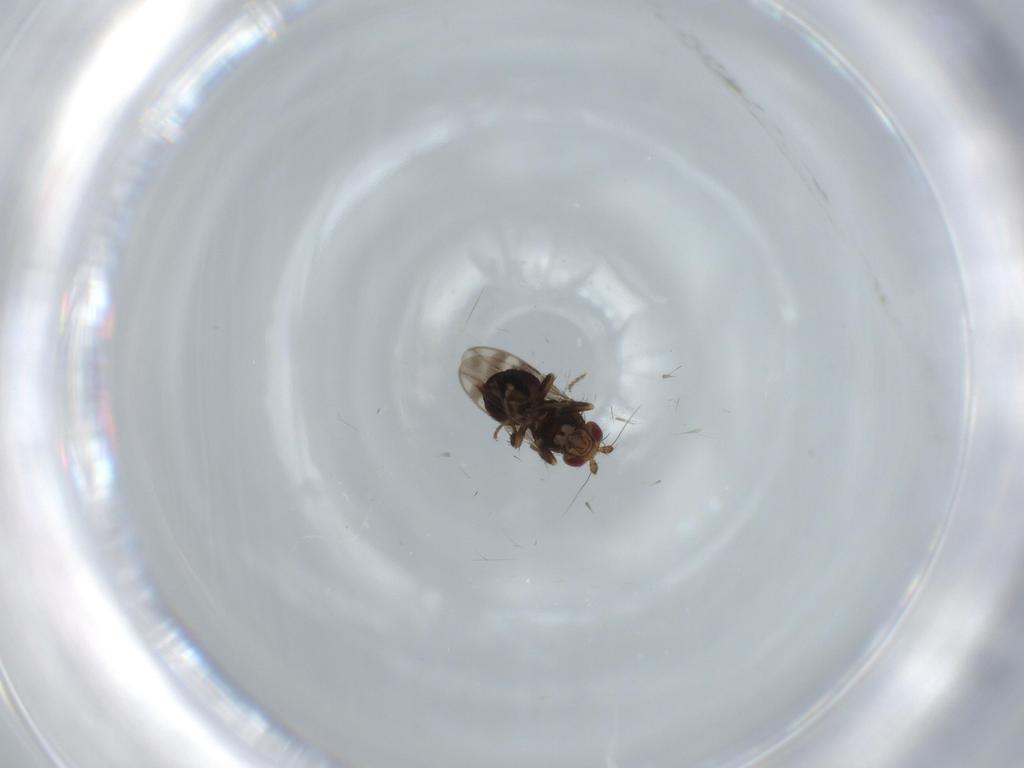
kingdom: Animalia
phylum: Arthropoda
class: Insecta
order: Diptera
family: Sphaeroceridae
